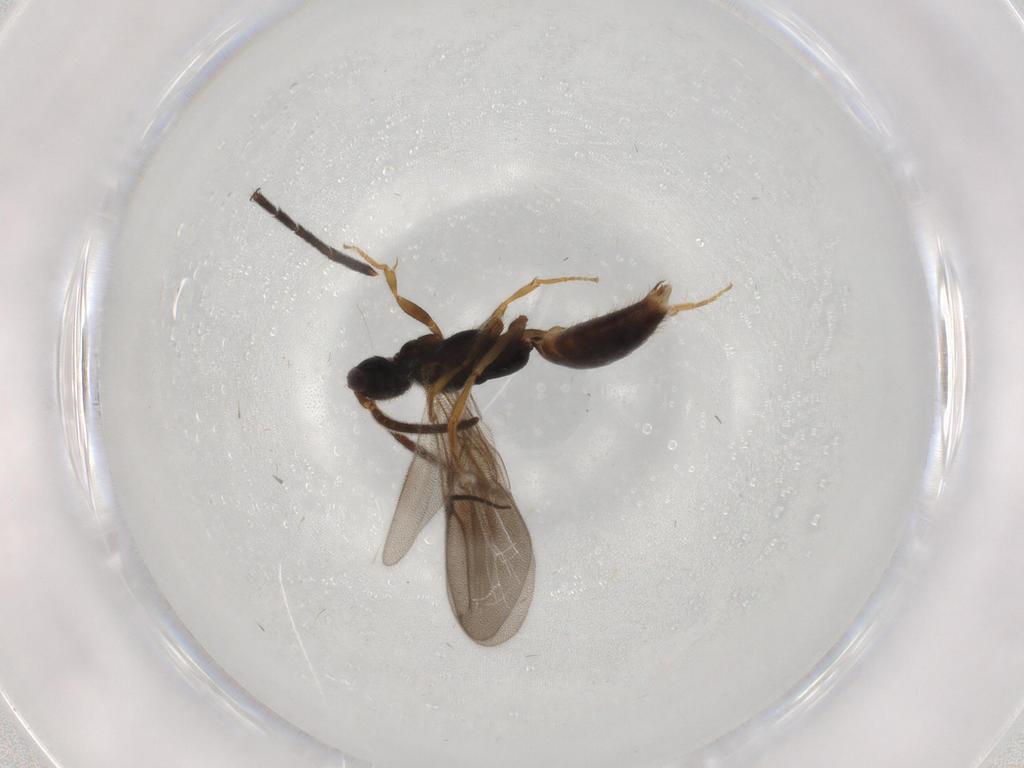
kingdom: Animalia
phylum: Arthropoda
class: Insecta
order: Hymenoptera
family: Bethylidae
